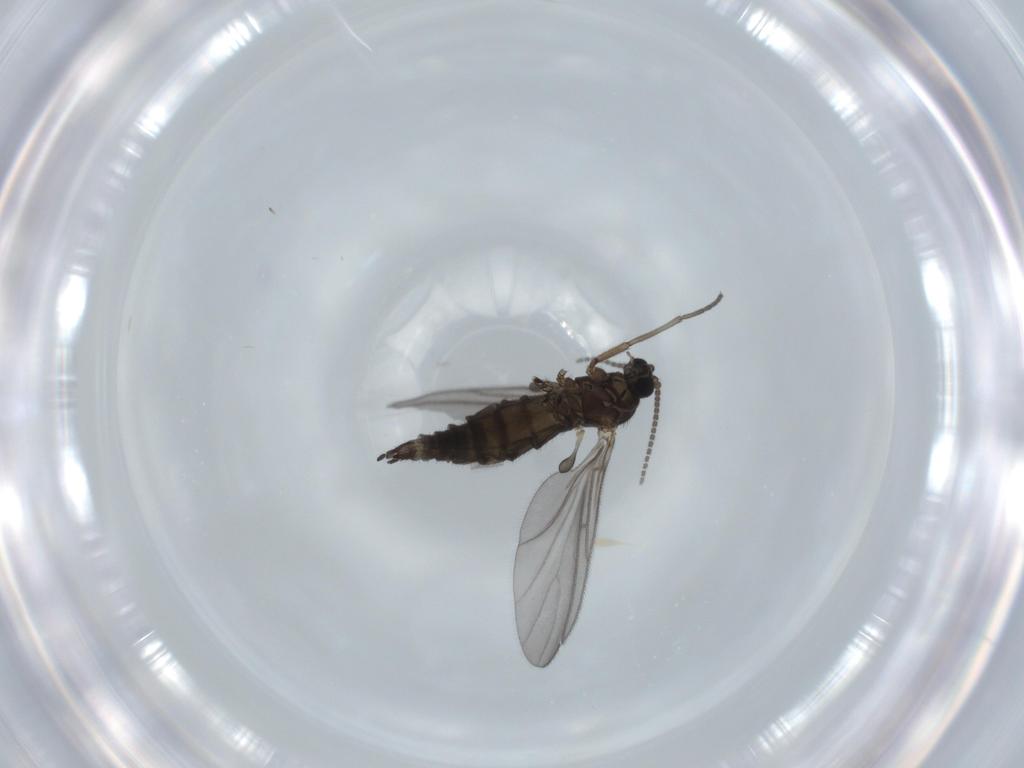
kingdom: Animalia
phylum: Arthropoda
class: Insecta
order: Diptera
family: Sciaridae
